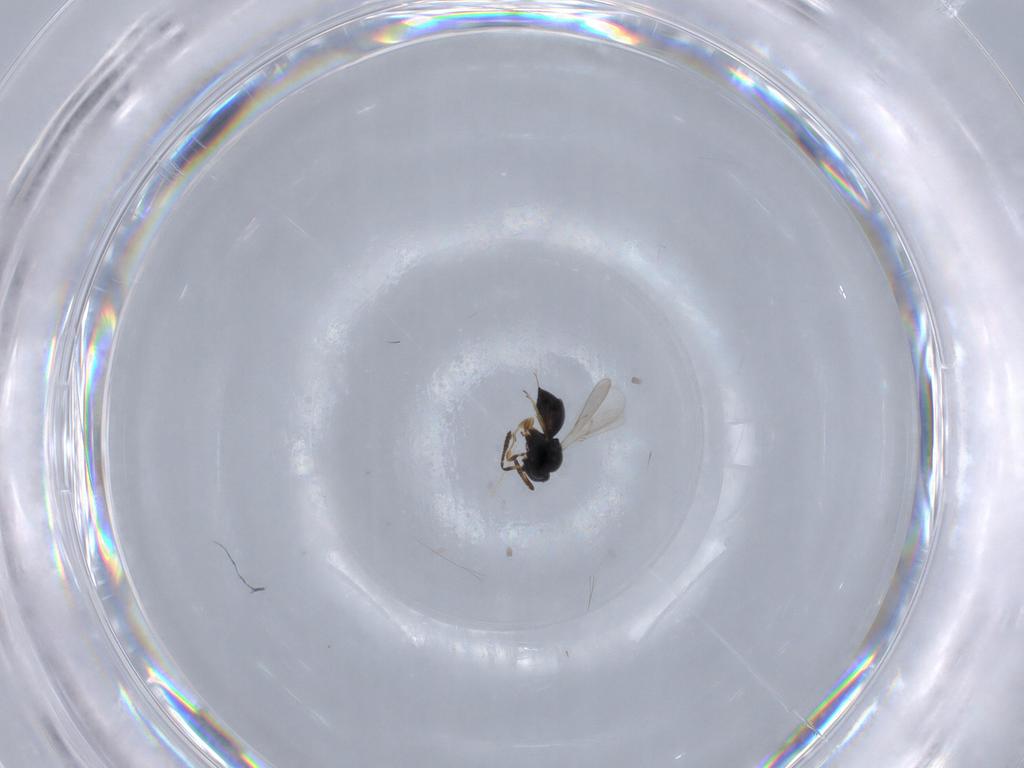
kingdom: Animalia
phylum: Arthropoda
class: Insecta
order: Hymenoptera
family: Scelionidae
